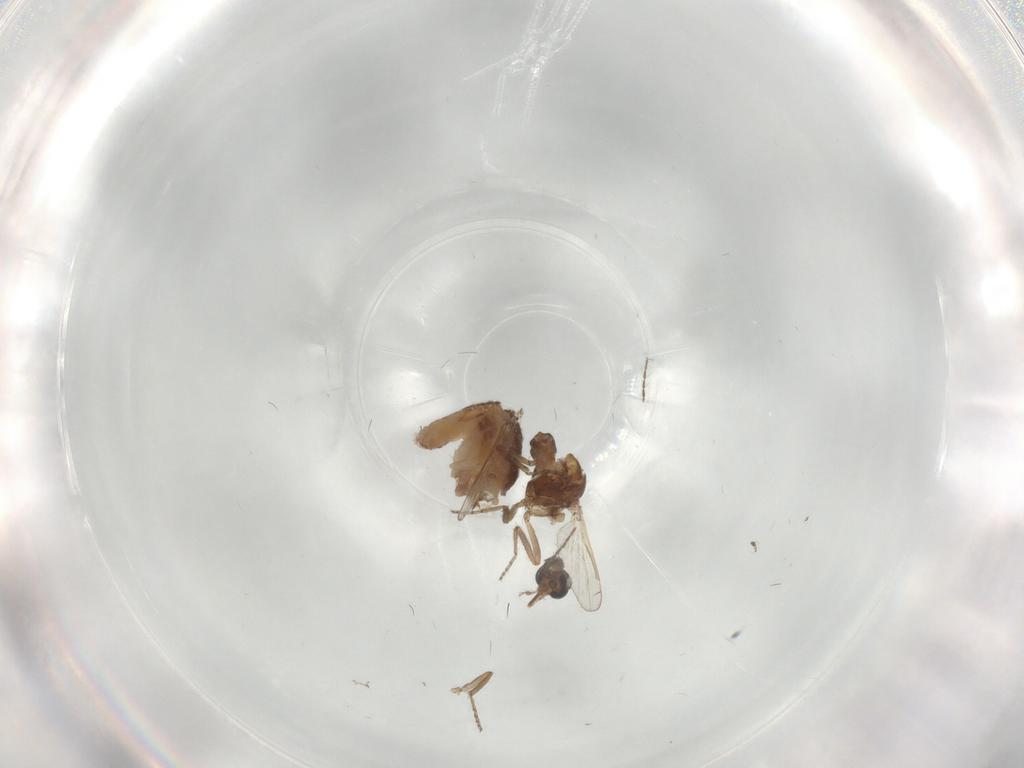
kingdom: Animalia
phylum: Arthropoda
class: Insecta
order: Diptera
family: Ceratopogonidae
